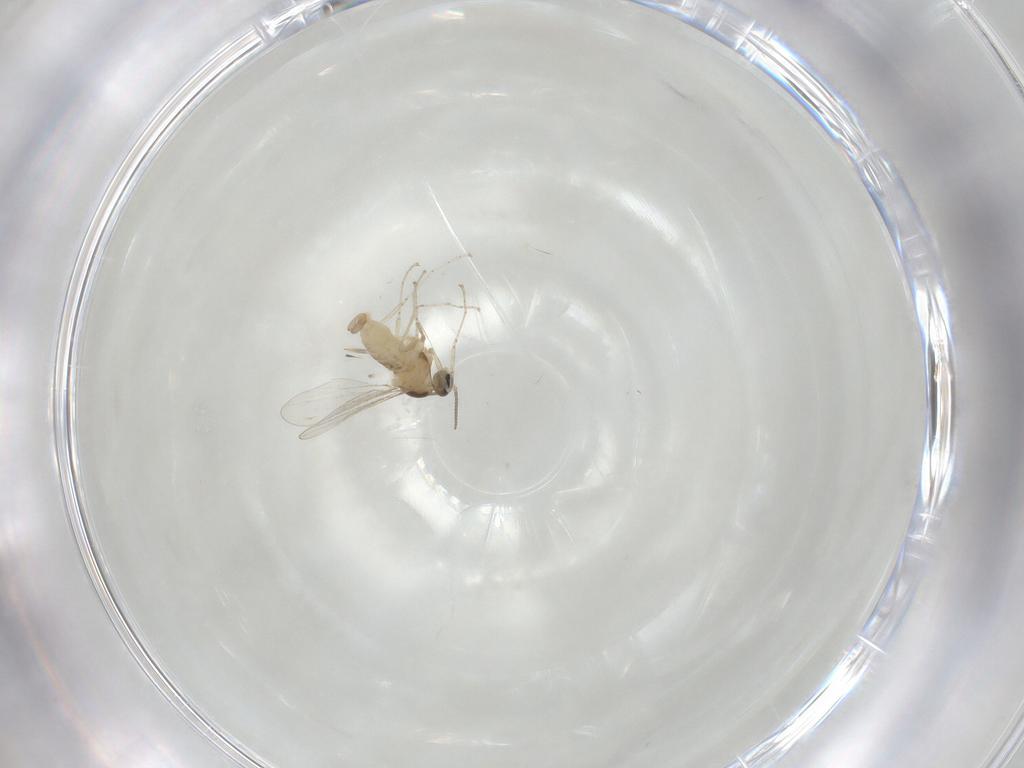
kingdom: Animalia
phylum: Arthropoda
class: Insecta
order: Diptera
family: Cecidomyiidae
